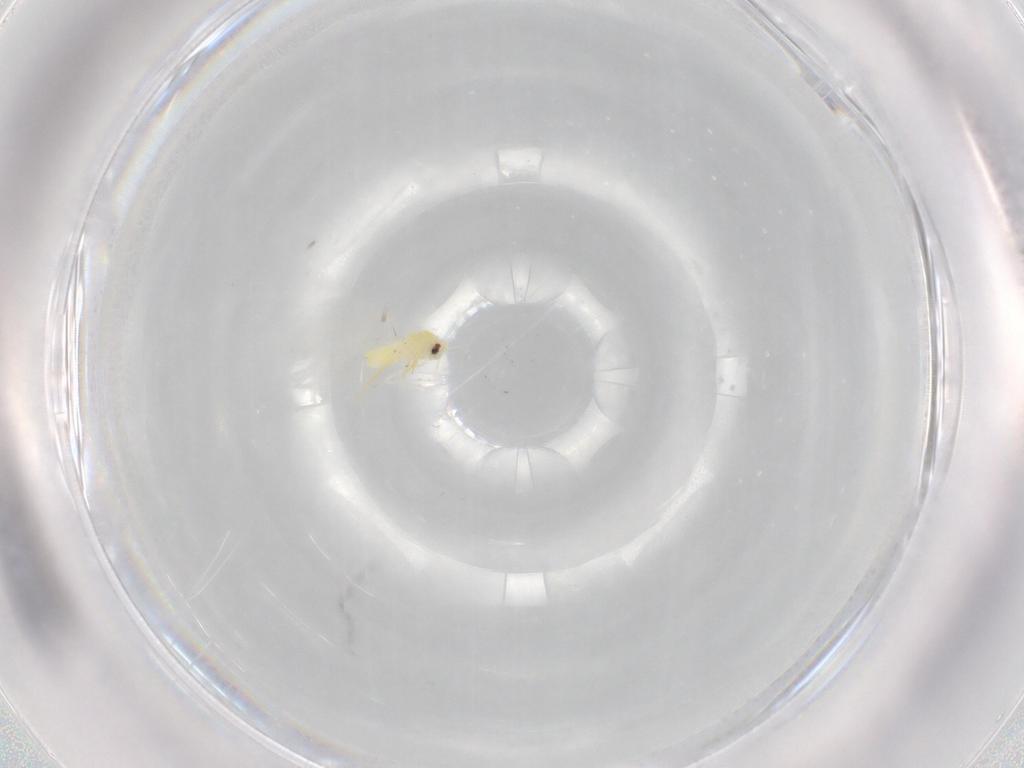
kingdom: Animalia
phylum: Arthropoda
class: Insecta
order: Hemiptera
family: Aleyrodidae
